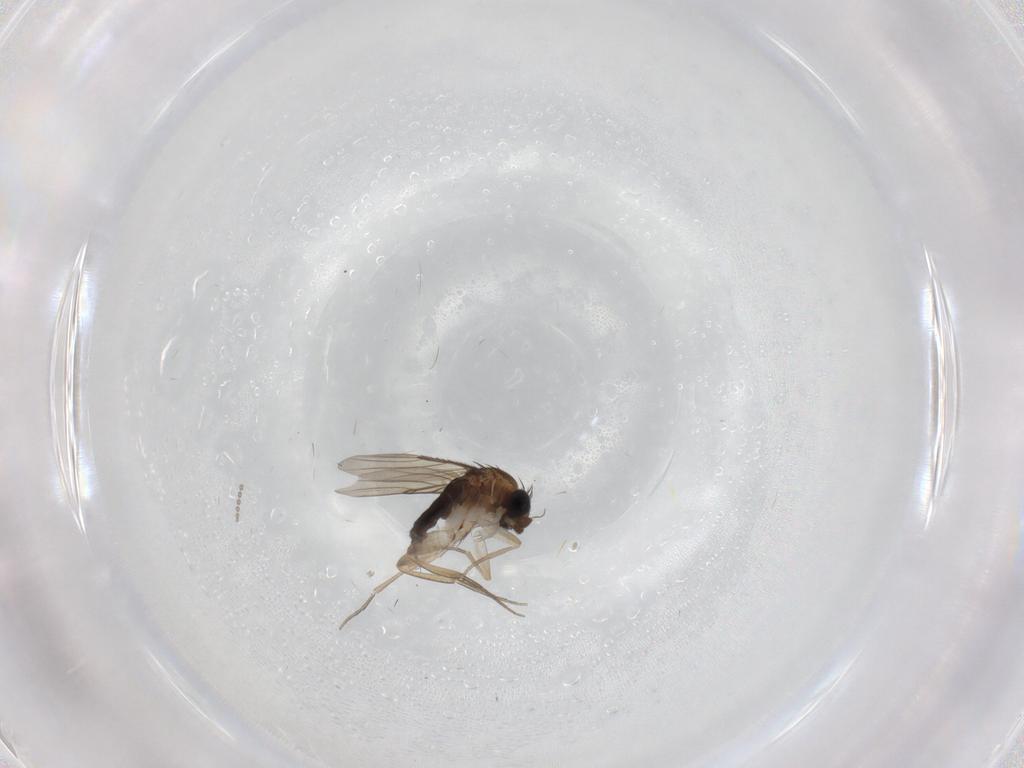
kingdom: Animalia
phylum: Arthropoda
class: Insecta
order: Diptera
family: Phoridae
